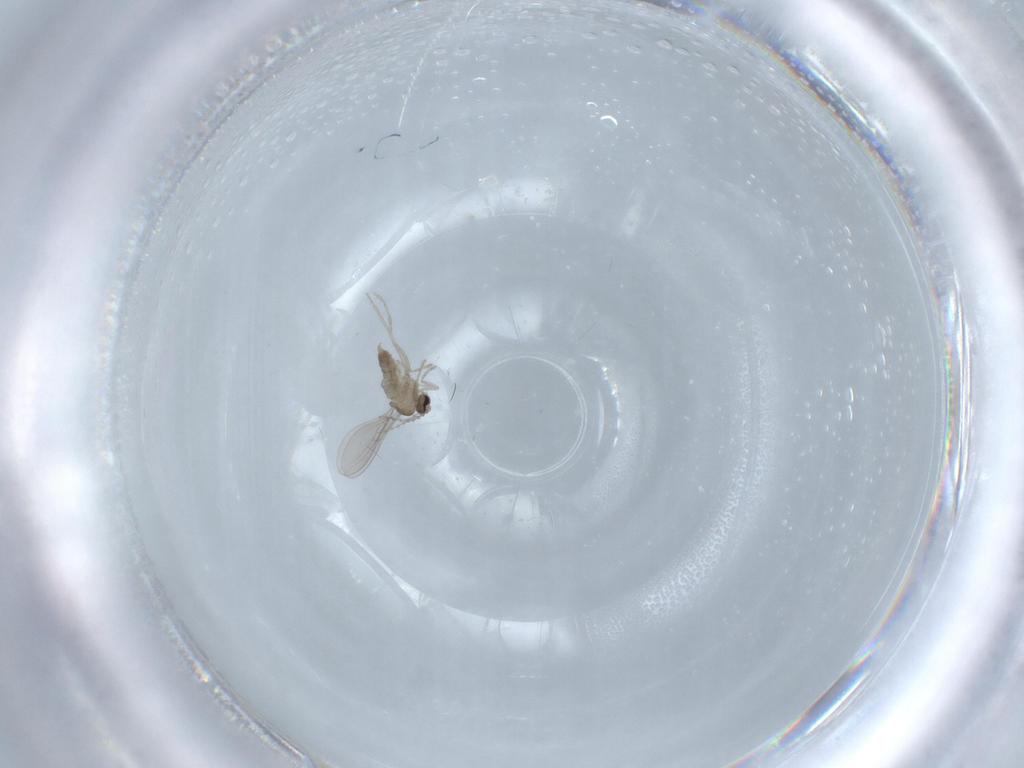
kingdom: Animalia
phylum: Arthropoda
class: Insecta
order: Diptera
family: Cecidomyiidae
